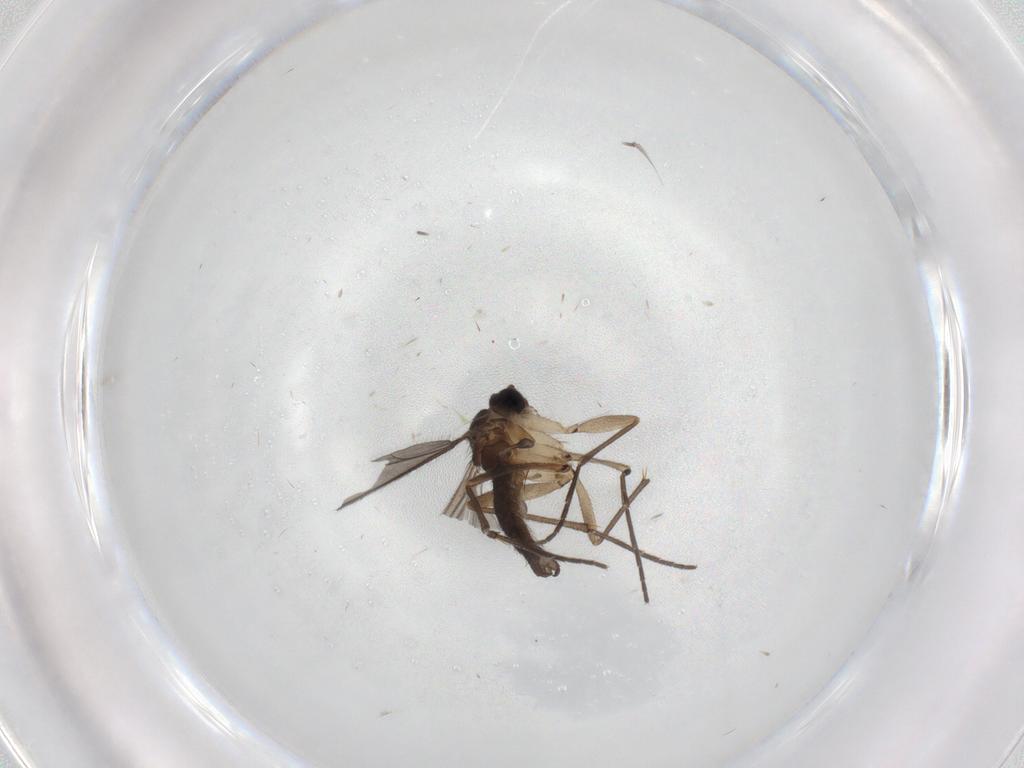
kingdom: Animalia
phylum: Arthropoda
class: Insecta
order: Diptera
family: Sciaridae
